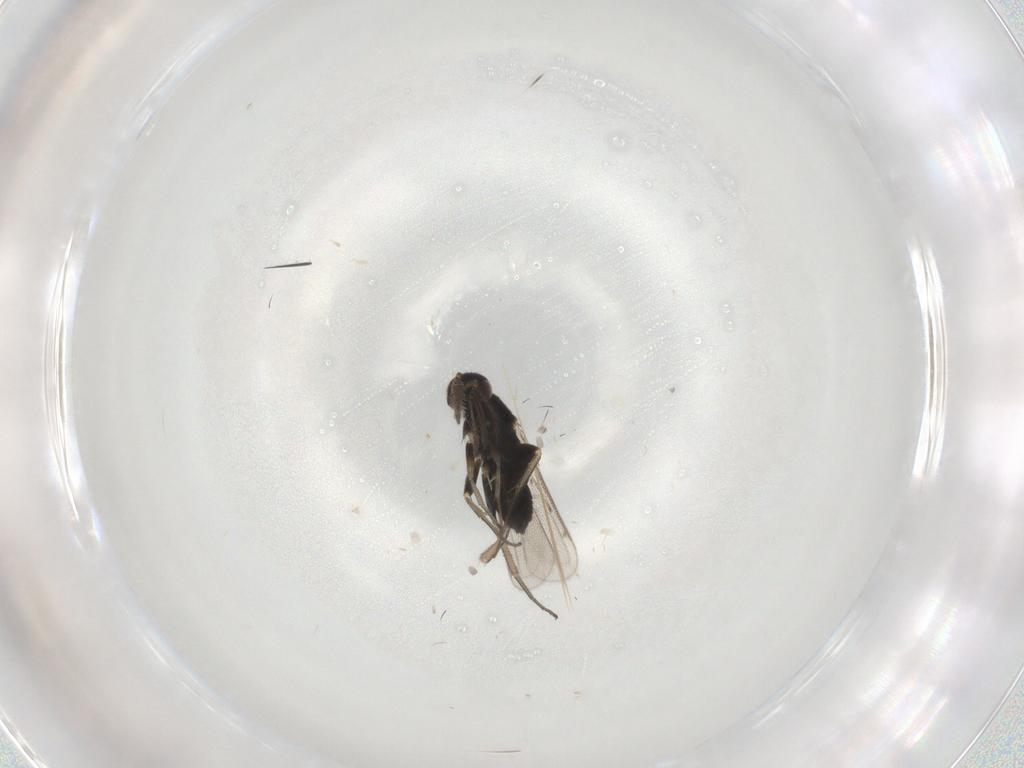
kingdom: Animalia
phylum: Arthropoda
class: Insecta
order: Hymenoptera
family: Eulophidae
